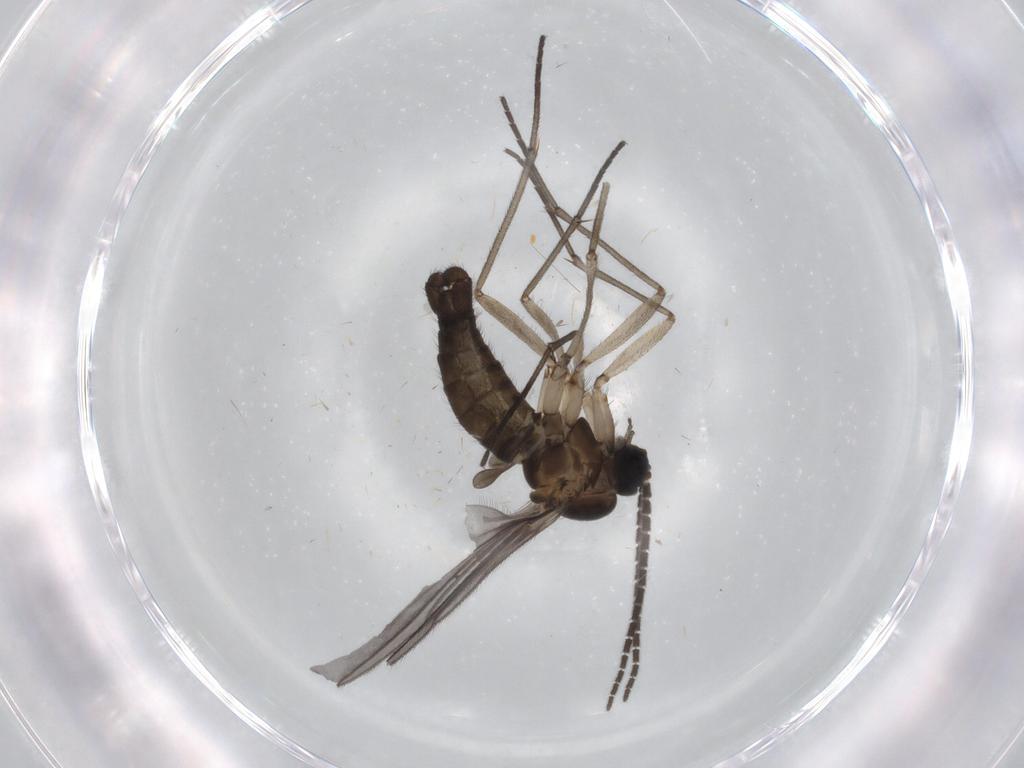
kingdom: Animalia
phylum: Arthropoda
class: Insecta
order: Diptera
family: Sciaridae
